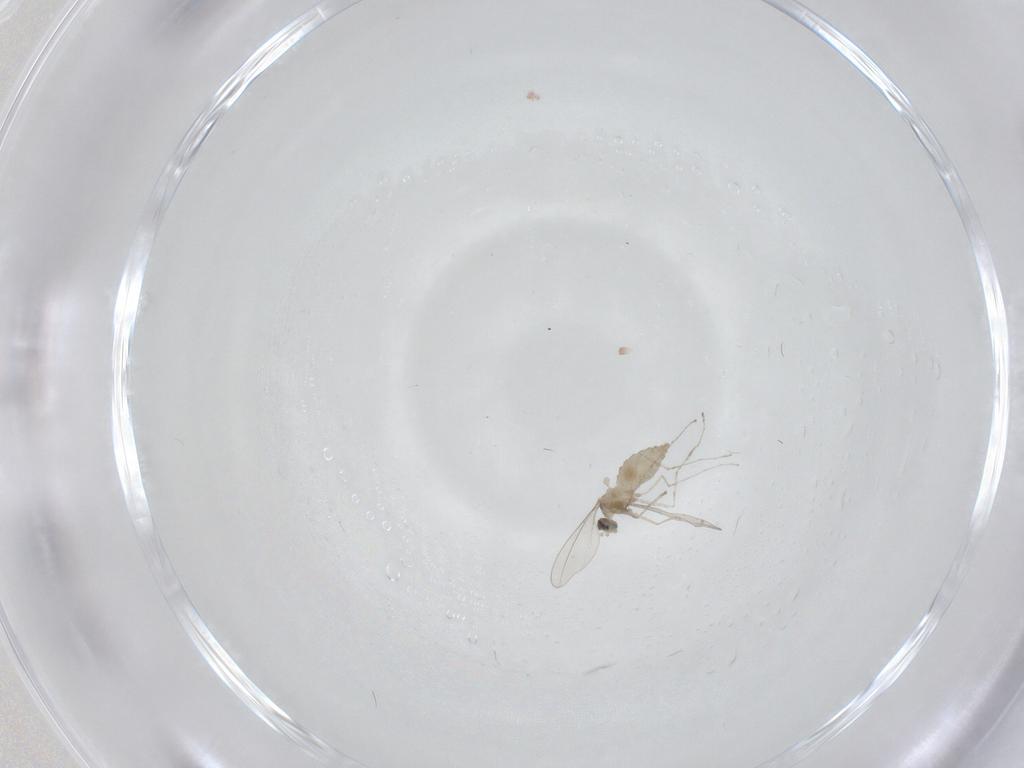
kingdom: Animalia
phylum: Arthropoda
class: Insecta
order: Diptera
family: Cecidomyiidae
